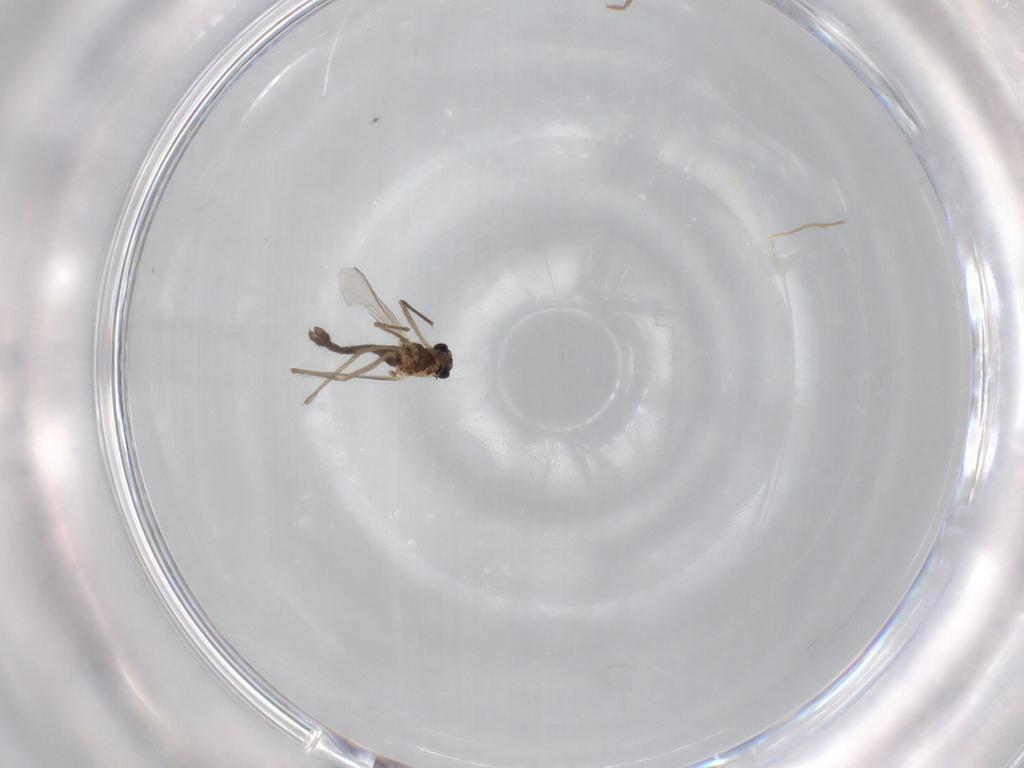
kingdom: Animalia
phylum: Arthropoda
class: Insecta
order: Diptera
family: Chironomidae
